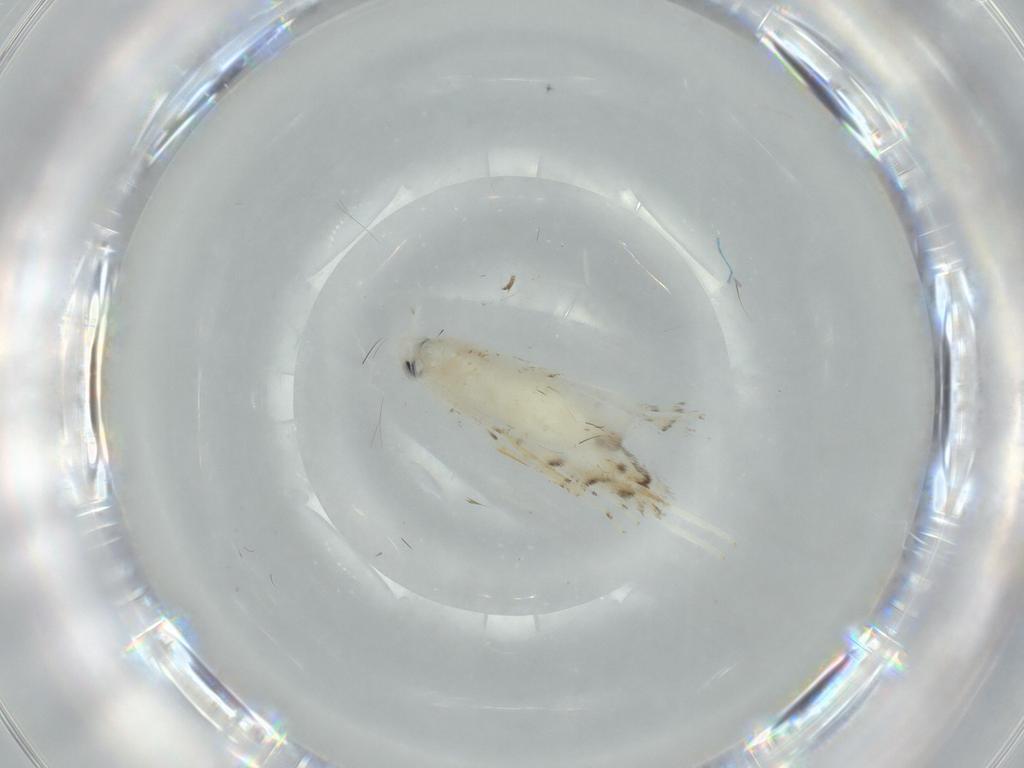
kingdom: Animalia
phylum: Arthropoda
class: Insecta
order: Lepidoptera
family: Gracillariidae
